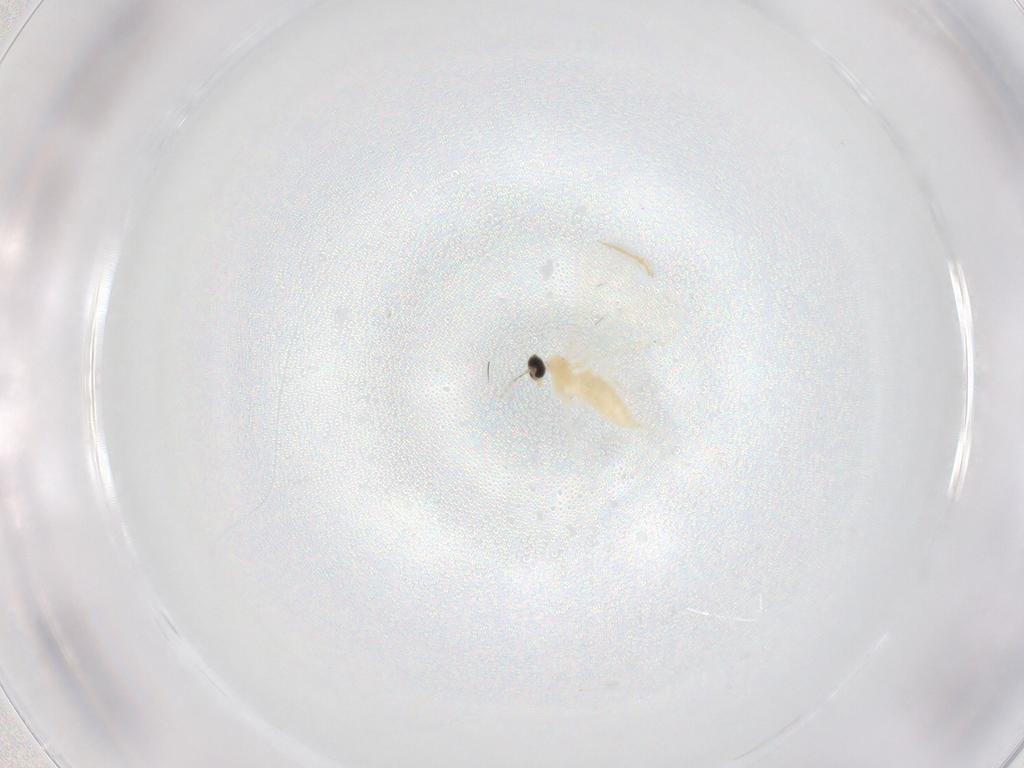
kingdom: Animalia
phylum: Arthropoda
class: Insecta
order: Diptera
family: Cecidomyiidae
